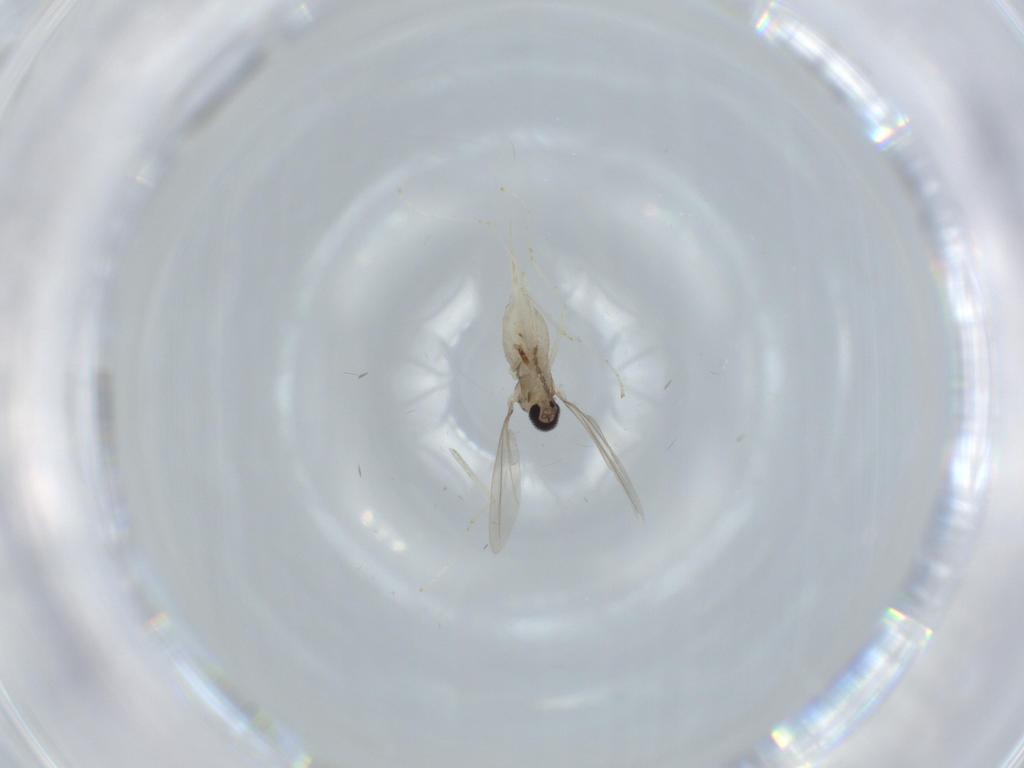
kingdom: Animalia
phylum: Arthropoda
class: Insecta
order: Diptera
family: Cecidomyiidae
